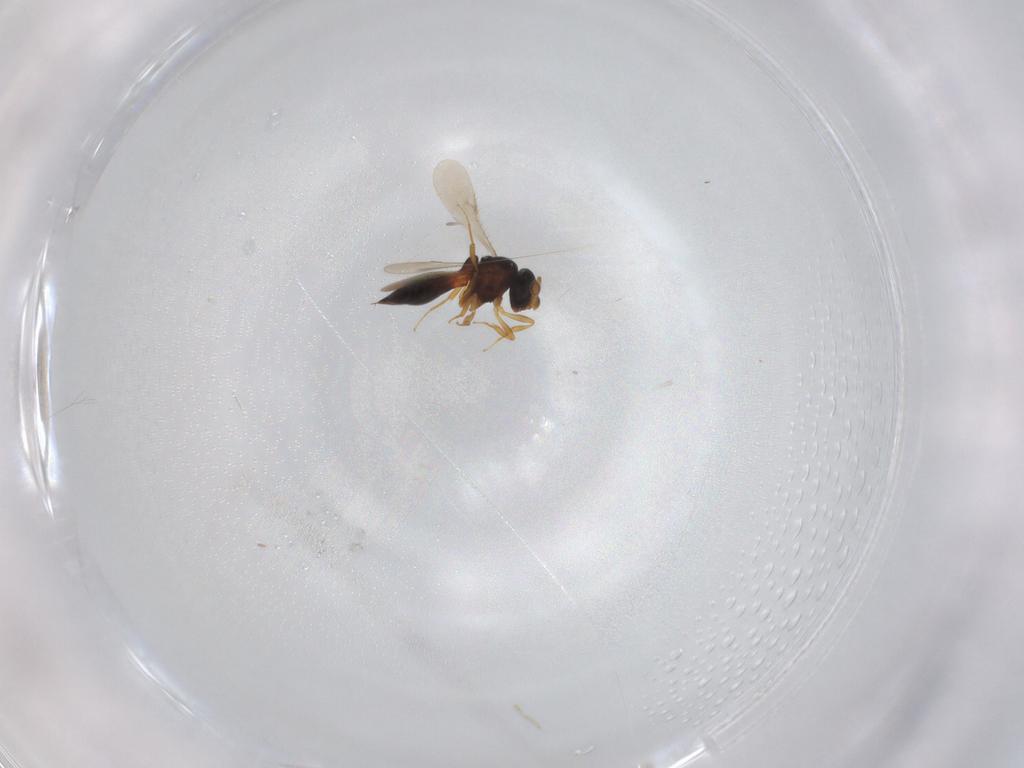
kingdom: Animalia
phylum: Arthropoda
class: Insecta
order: Hymenoptera
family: Scelionidae
